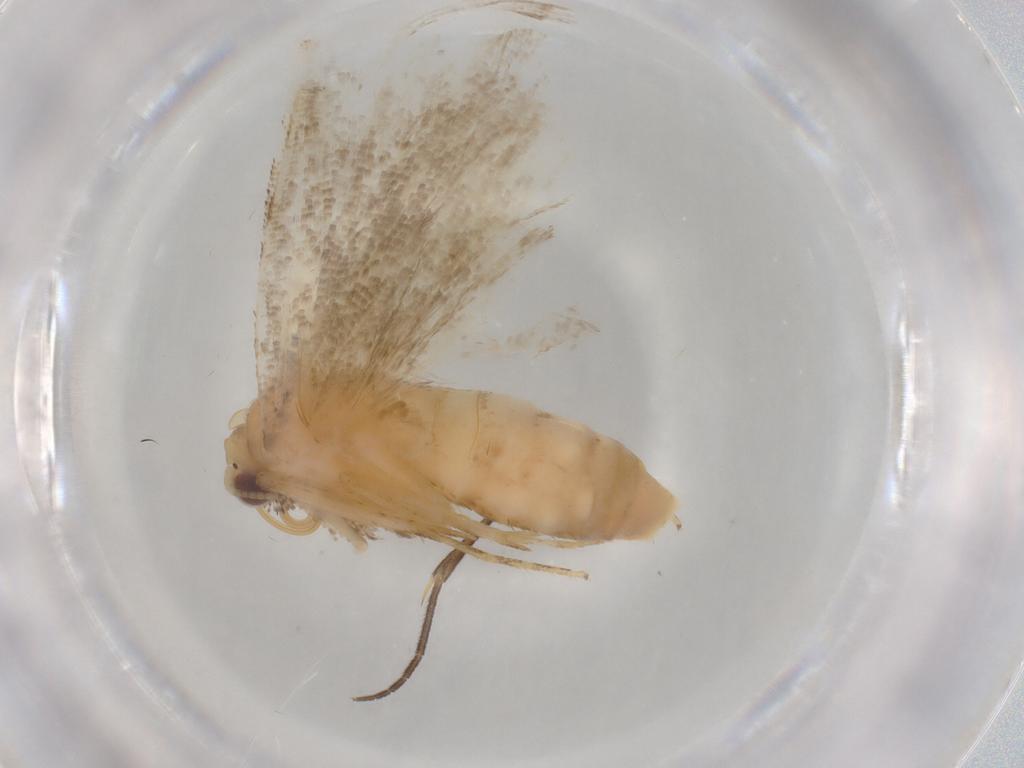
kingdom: Animalia
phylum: Arthropoda
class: Insecta
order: Lepidoptera
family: Erebidae
